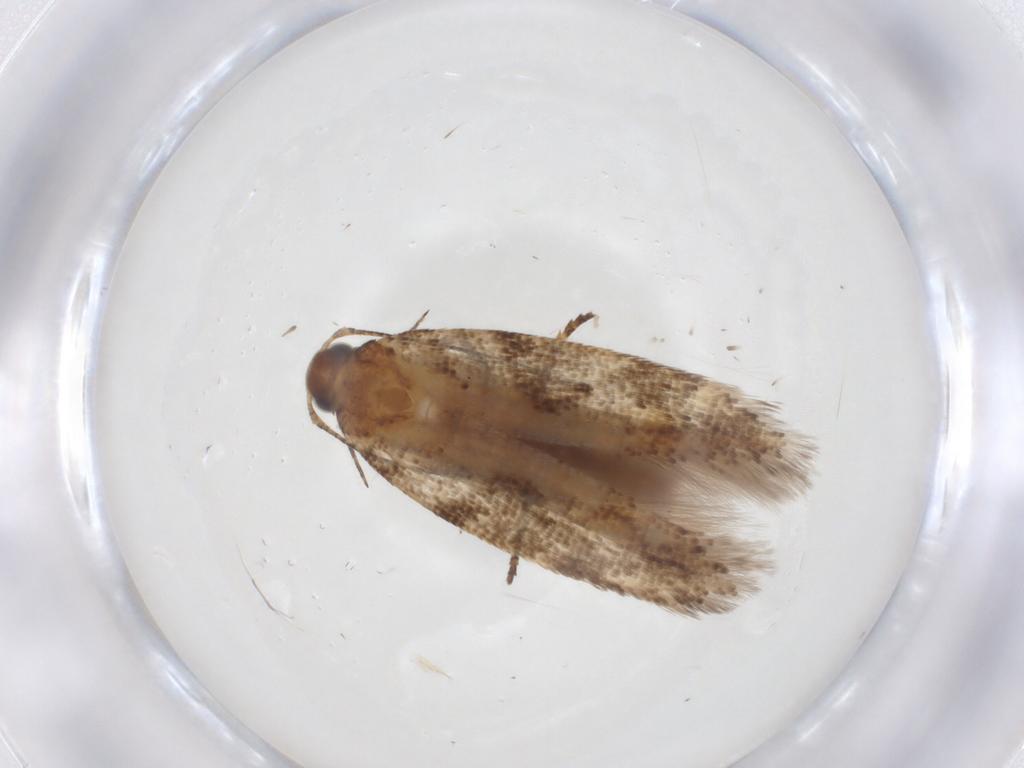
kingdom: Animalia
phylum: Arthropoda
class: Insecta
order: Lepidoptera
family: Gelechiidae
